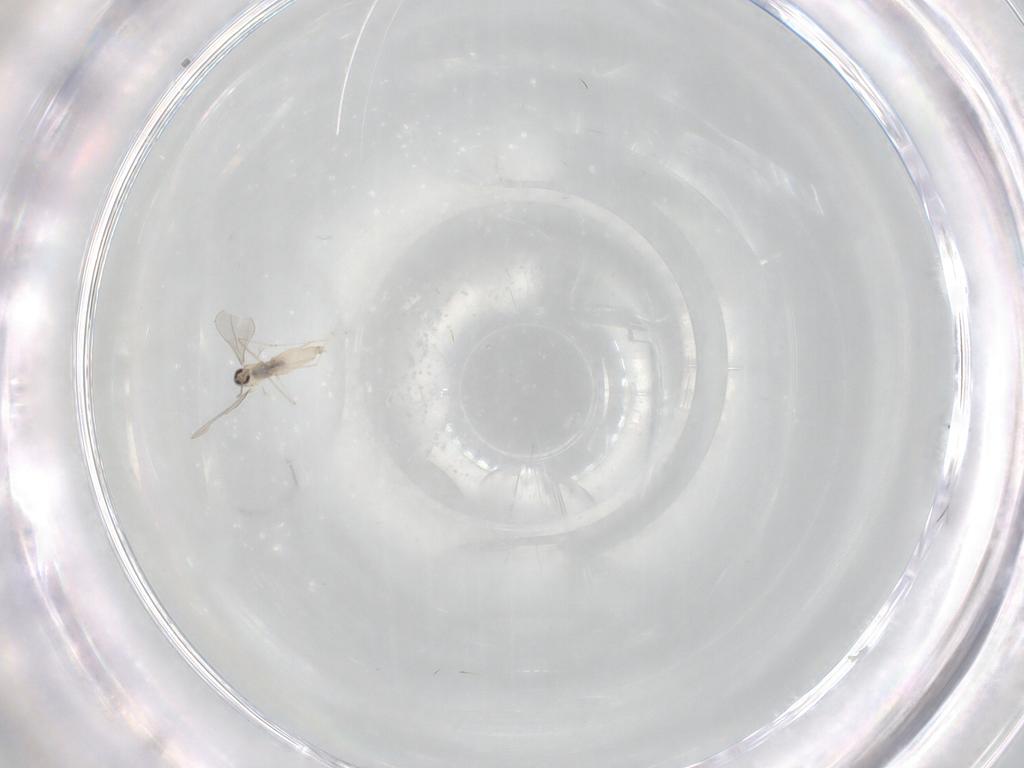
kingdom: Animalia
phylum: Arthropoda
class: Insecta
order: Diptera
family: Cecidomyiidae
